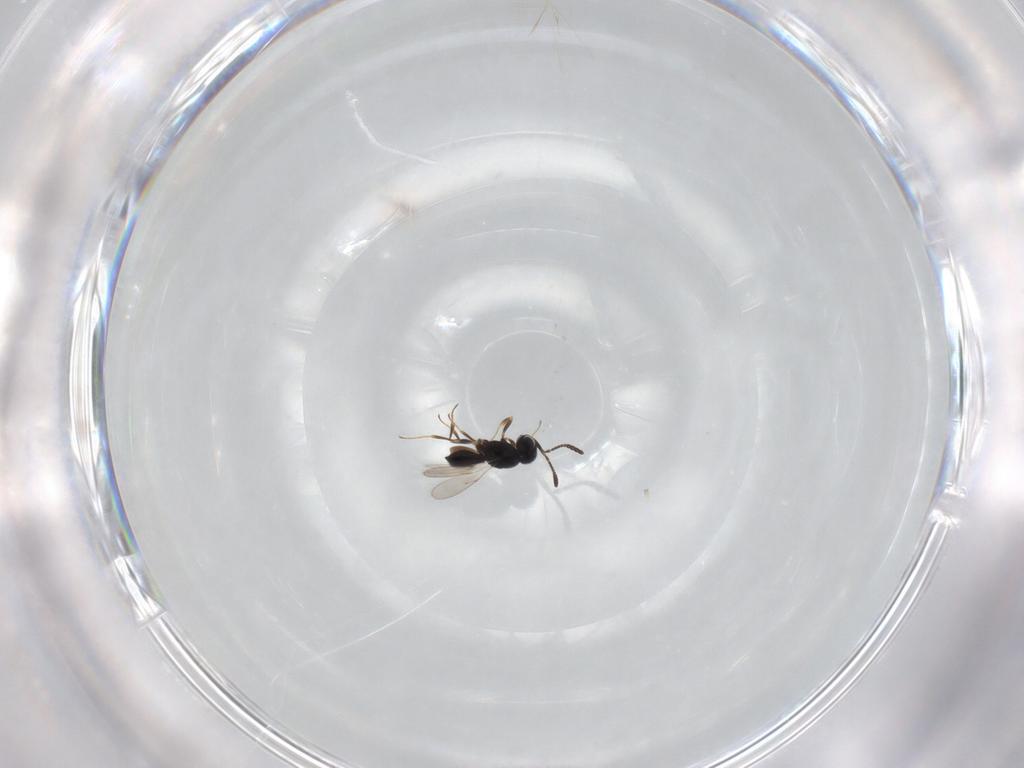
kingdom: Animalia
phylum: Arthropoda
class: Insecta
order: Hymenoptera
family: Scelionidae
